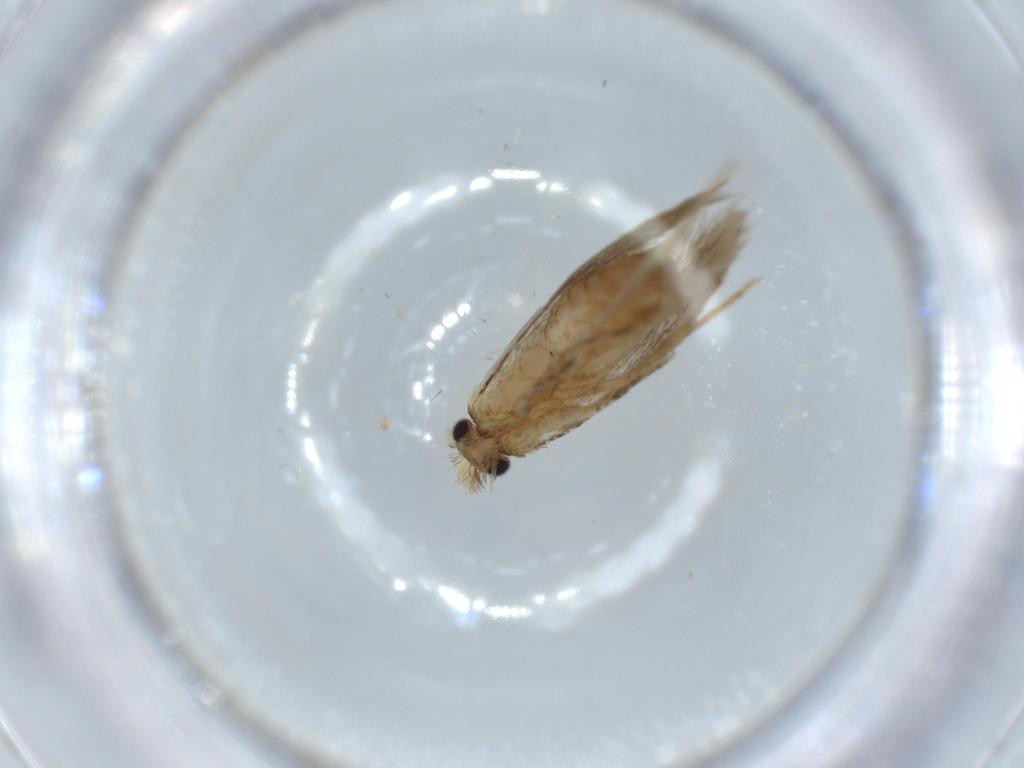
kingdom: Animalia
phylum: Arthropoda
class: Insecta
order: Lepidoptera
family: Tineidae
